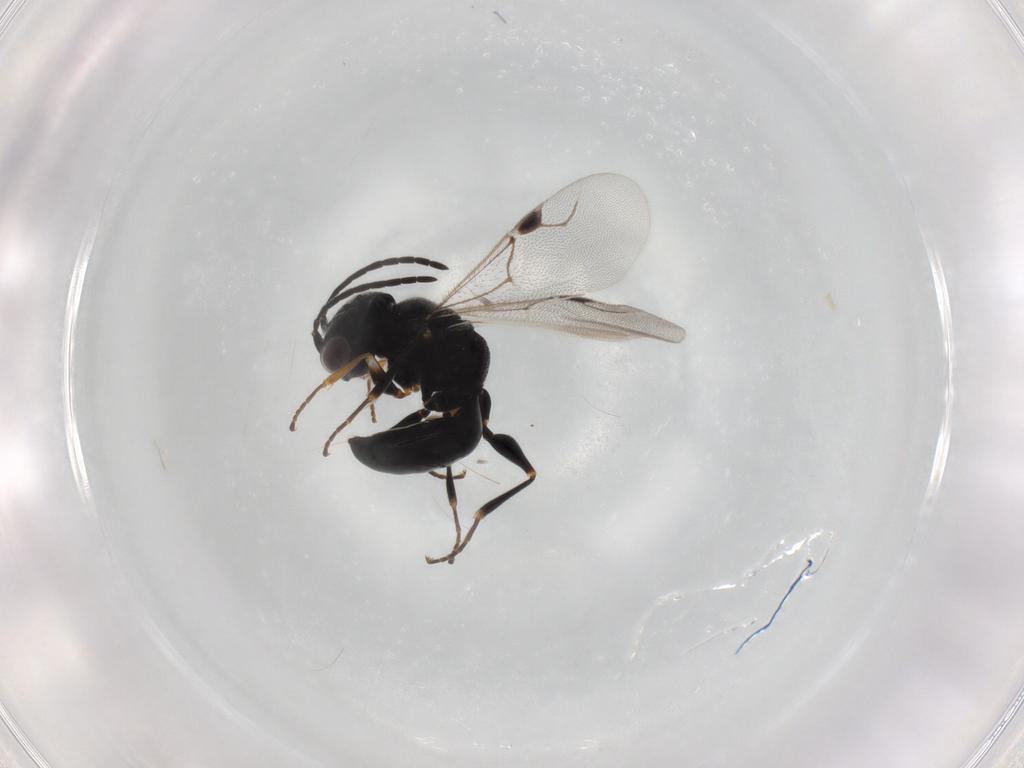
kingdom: Animalia
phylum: Arthropoda
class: Insecta
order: Hymenoptera
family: Dryinidae
